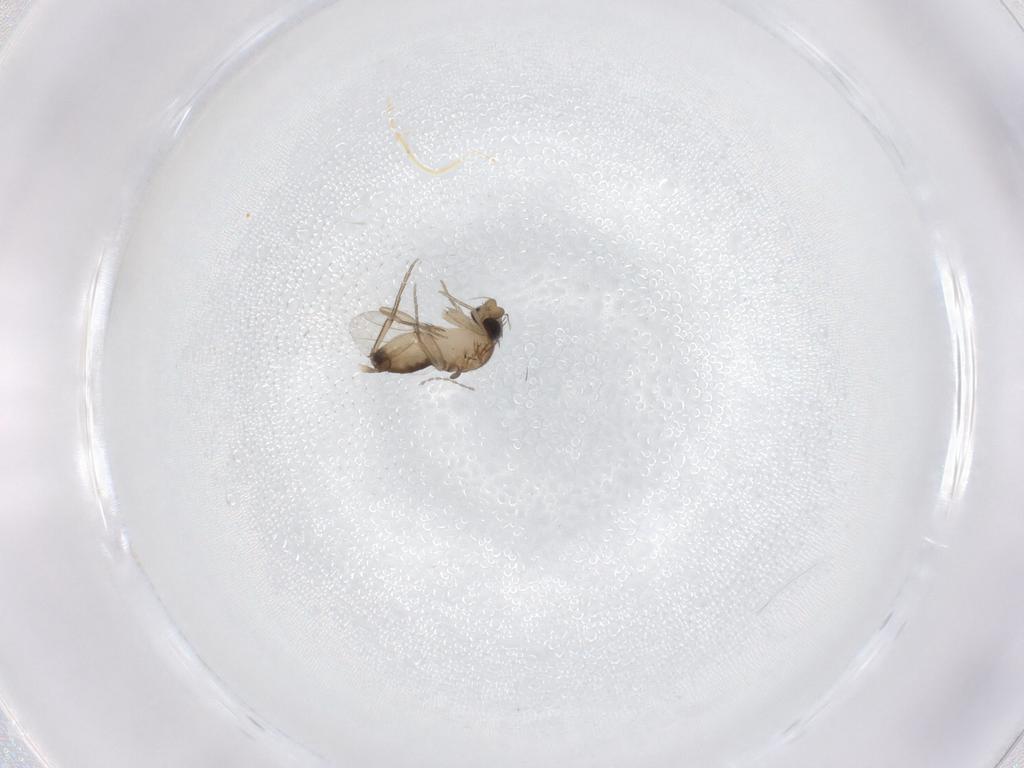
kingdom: Animalia
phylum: Arthropoda
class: Insecta
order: Diptera
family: Phoridae
